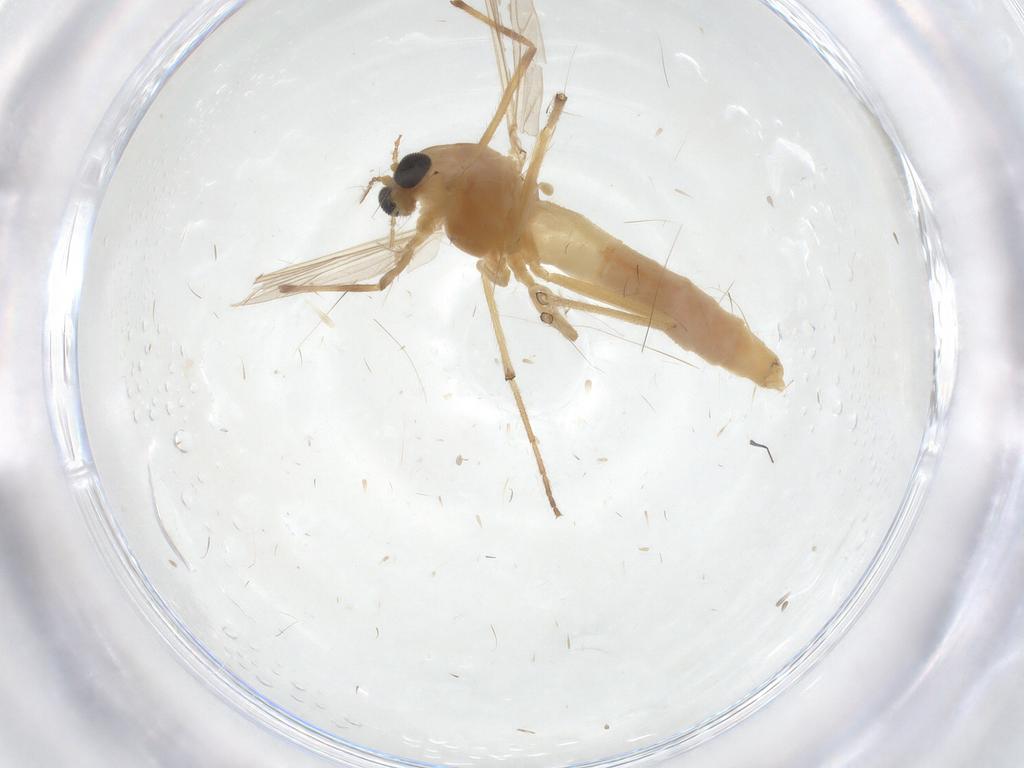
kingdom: Animalia
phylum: Arthropoda
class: Insecta
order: Diptera
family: Chironomidae
